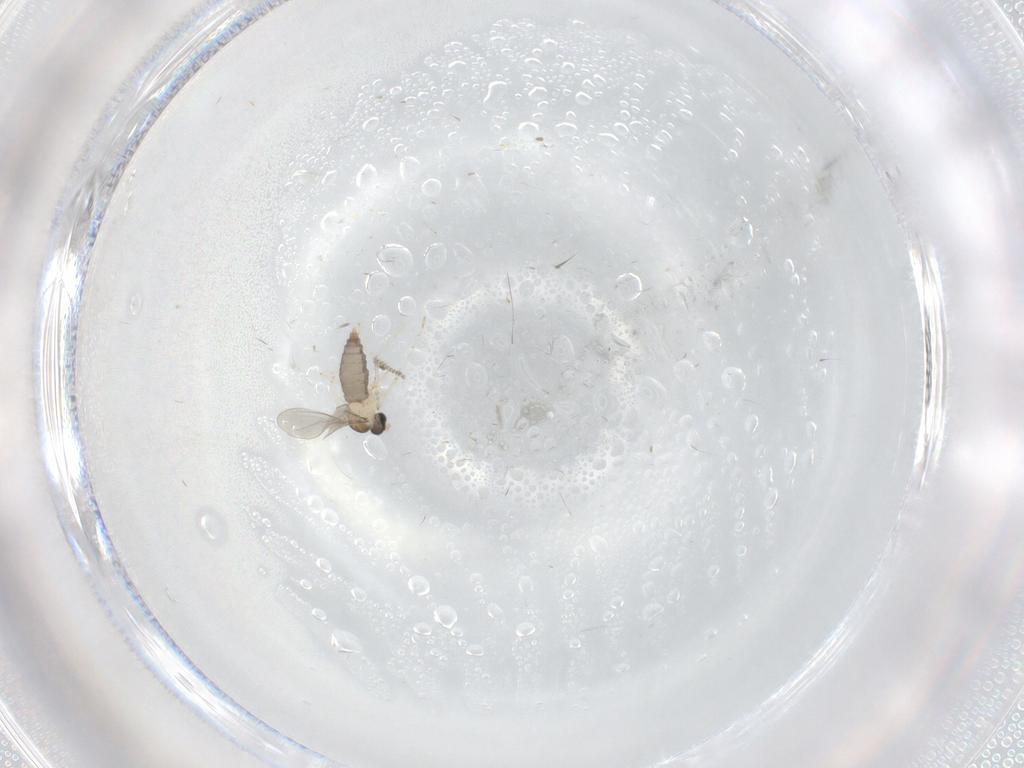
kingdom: Animalia
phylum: Arthropoda
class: Insecta
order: Diptera
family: Cecidomyiidae
